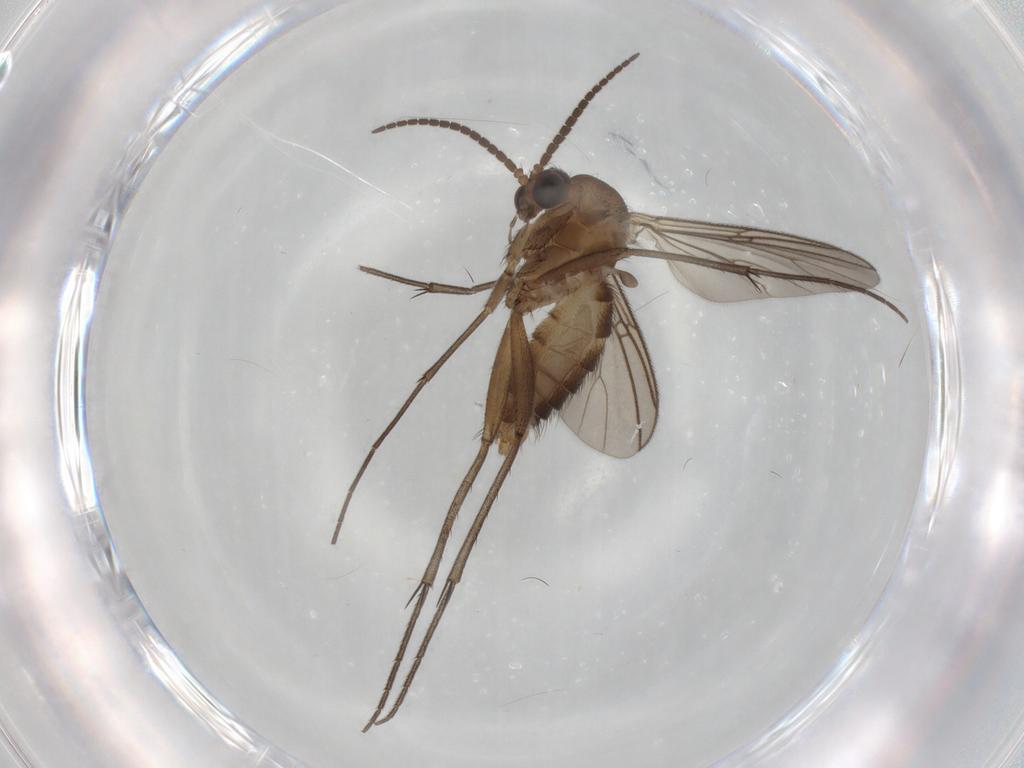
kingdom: Animalia
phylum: Arthropoda
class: Insecta
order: Diptera
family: Mycetophilidae
